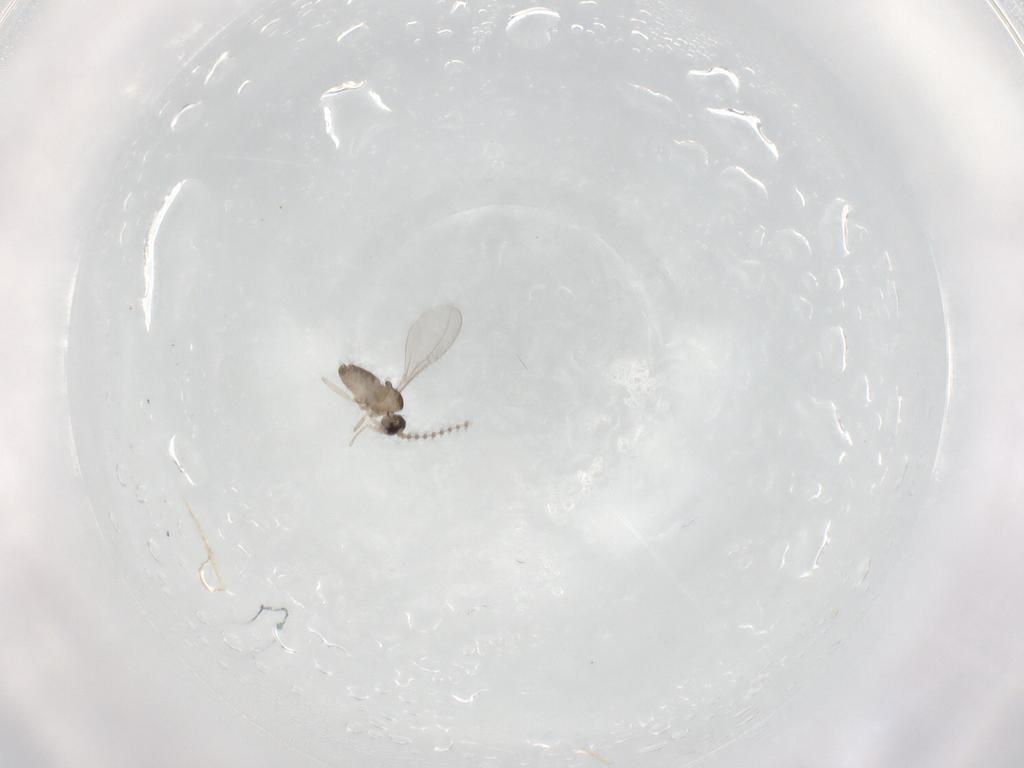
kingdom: Animalia
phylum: Arthropoda
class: Insecta
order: Diptera
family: Cecidomyiidae
